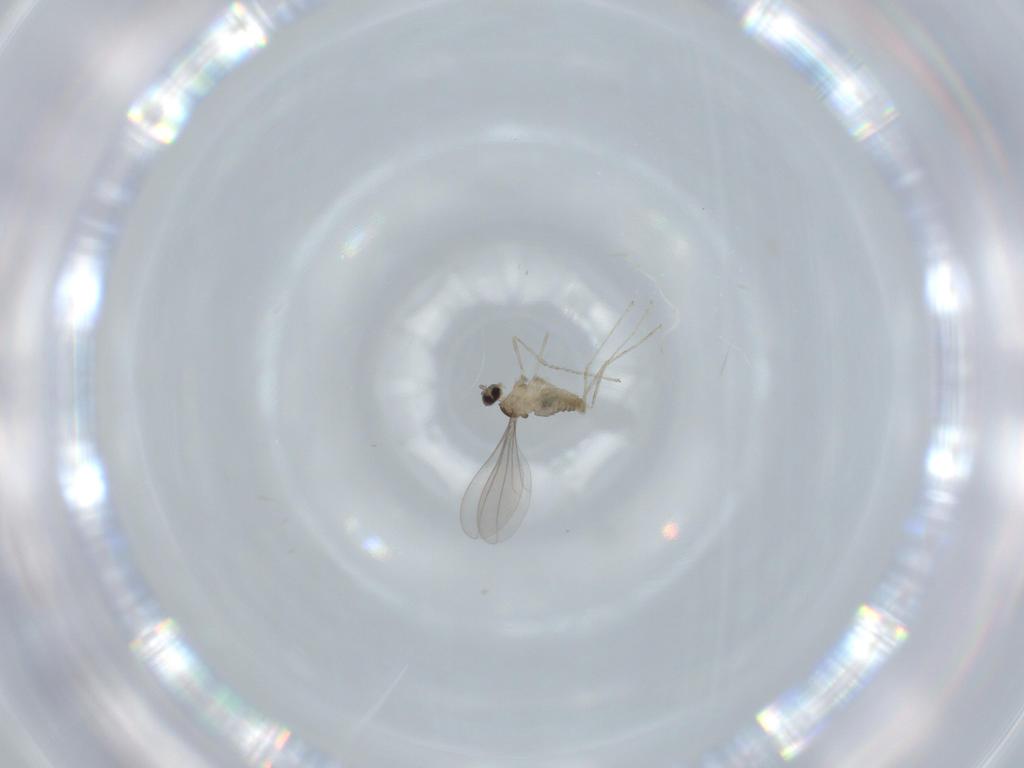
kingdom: Animalia
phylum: Arthropoda
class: Insecta
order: Diptera
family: Cecidomyiidae
